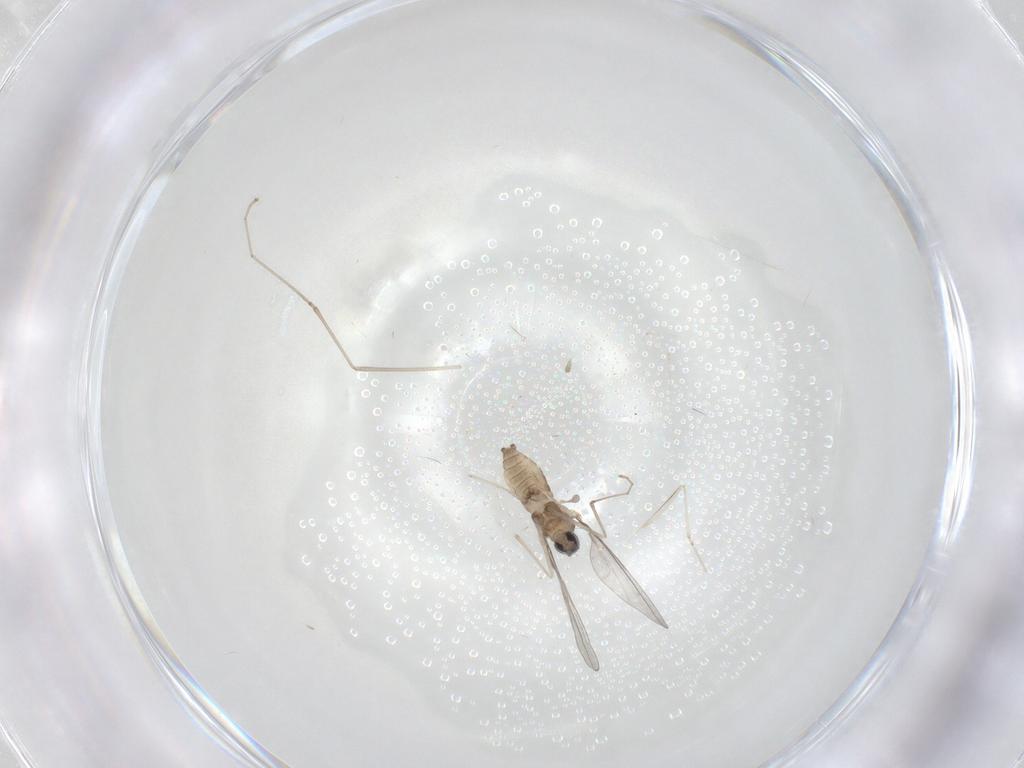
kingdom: Animalia
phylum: Arthropoda
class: Insecta
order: Diptera
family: Cecidomyiidae
